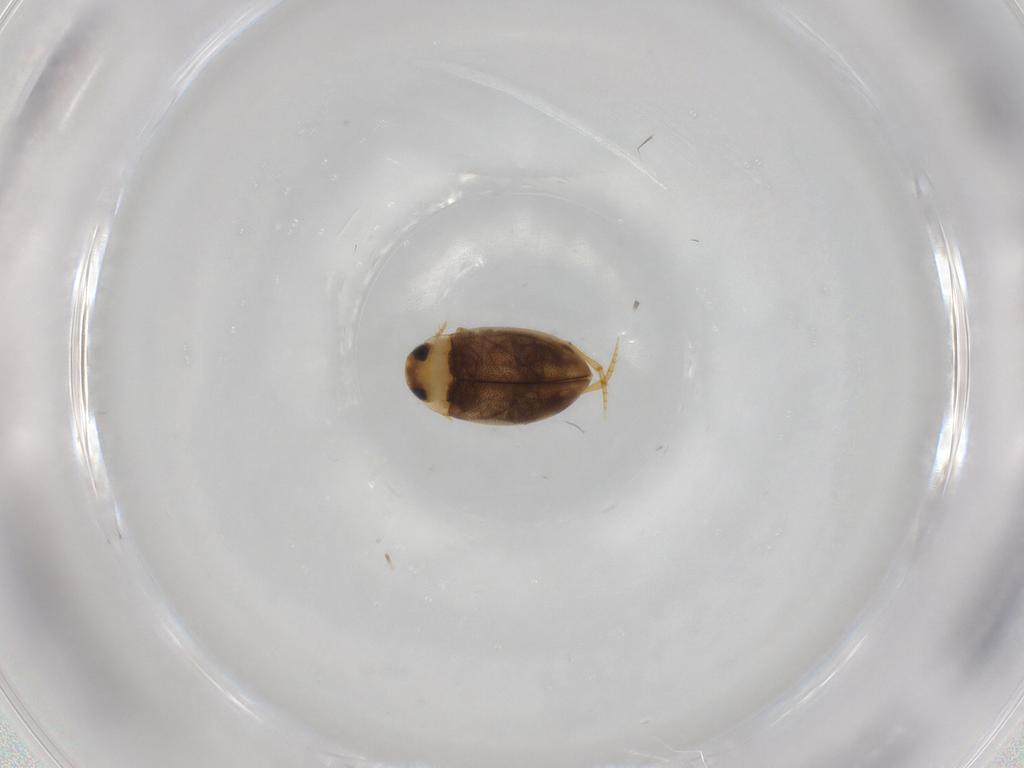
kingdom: Animalia
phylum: Arthropoda
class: Insecta
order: Coleoptera
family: Dytiscidae
